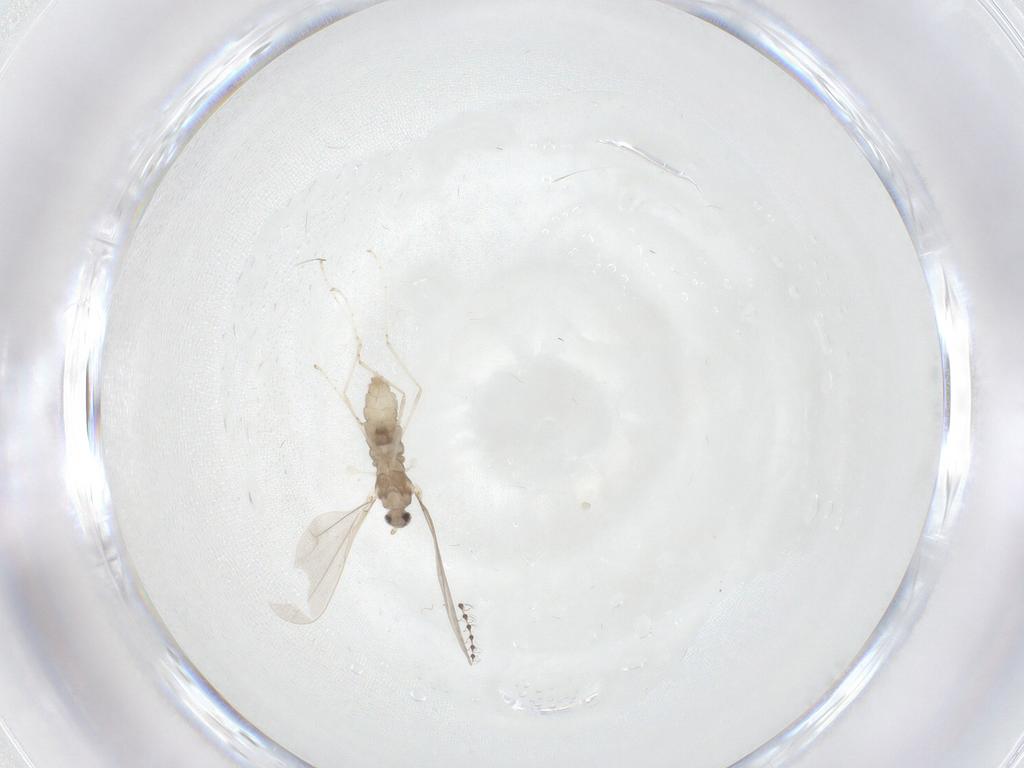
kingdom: Animalia
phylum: Arthropoda
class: Insecta
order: Diptera
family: Cecidomyiidae
